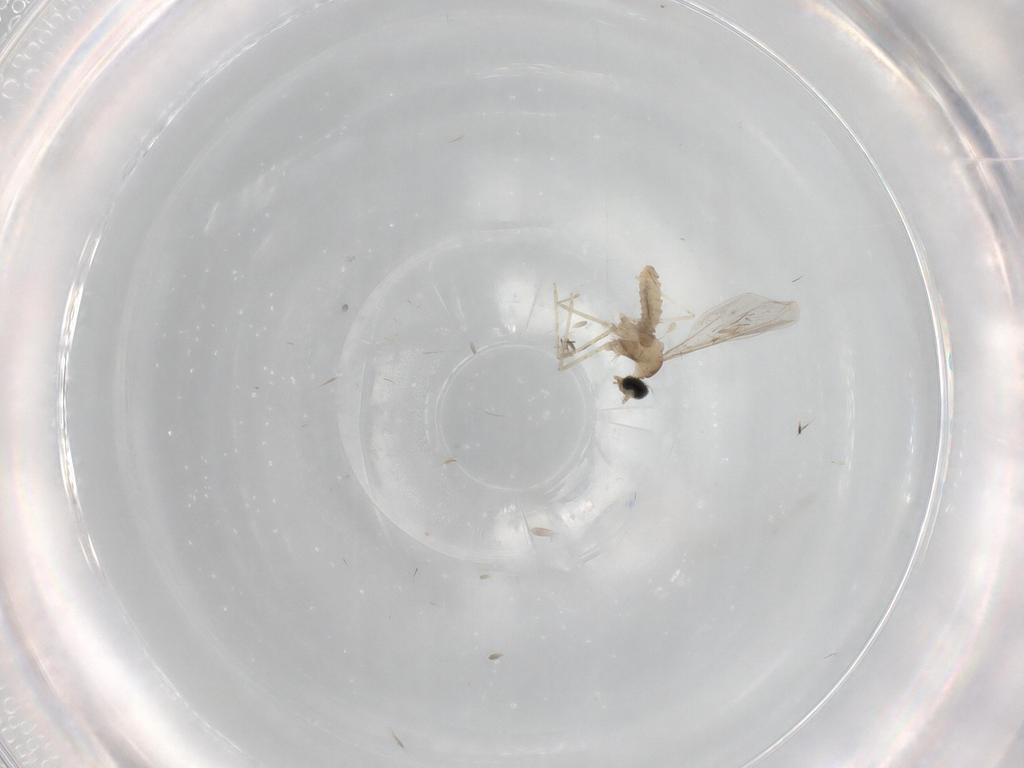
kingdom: Animalia
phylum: Arthropoda
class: Insecta
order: Diptera
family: Cecidomyiidae
